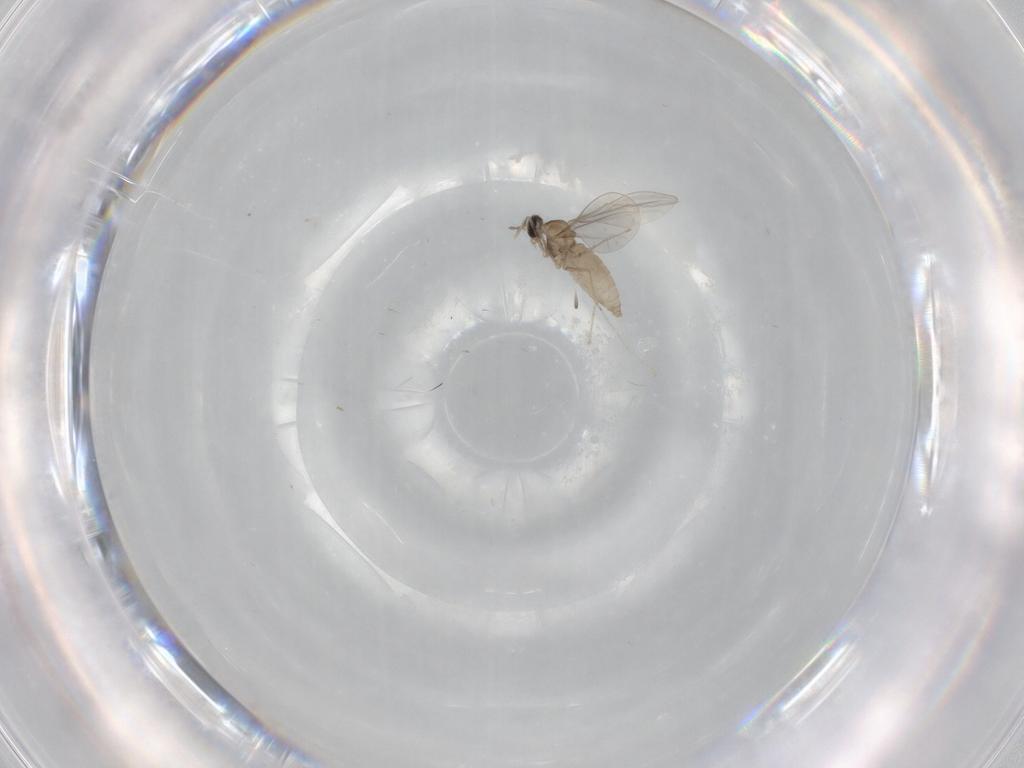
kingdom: Animalia
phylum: Arthropoda
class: Insecta
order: Diptera
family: Cecidomyiidae
